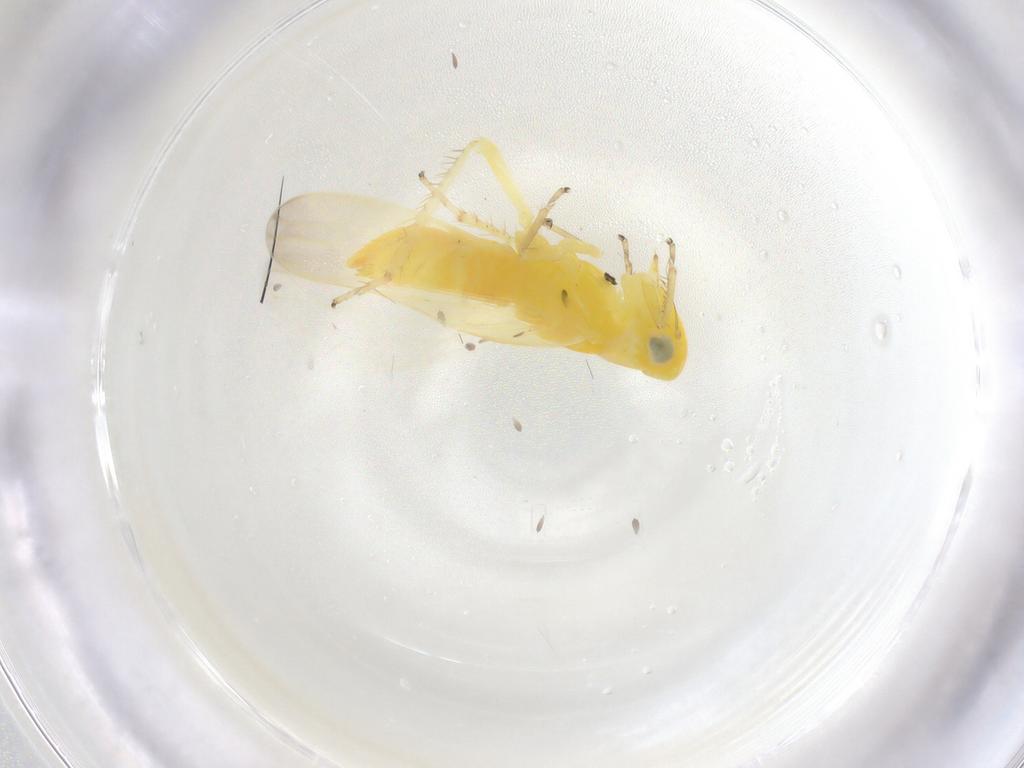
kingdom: Animalia
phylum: Arthropoda
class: Insecta
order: Hemiptera
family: Cicadellidae
